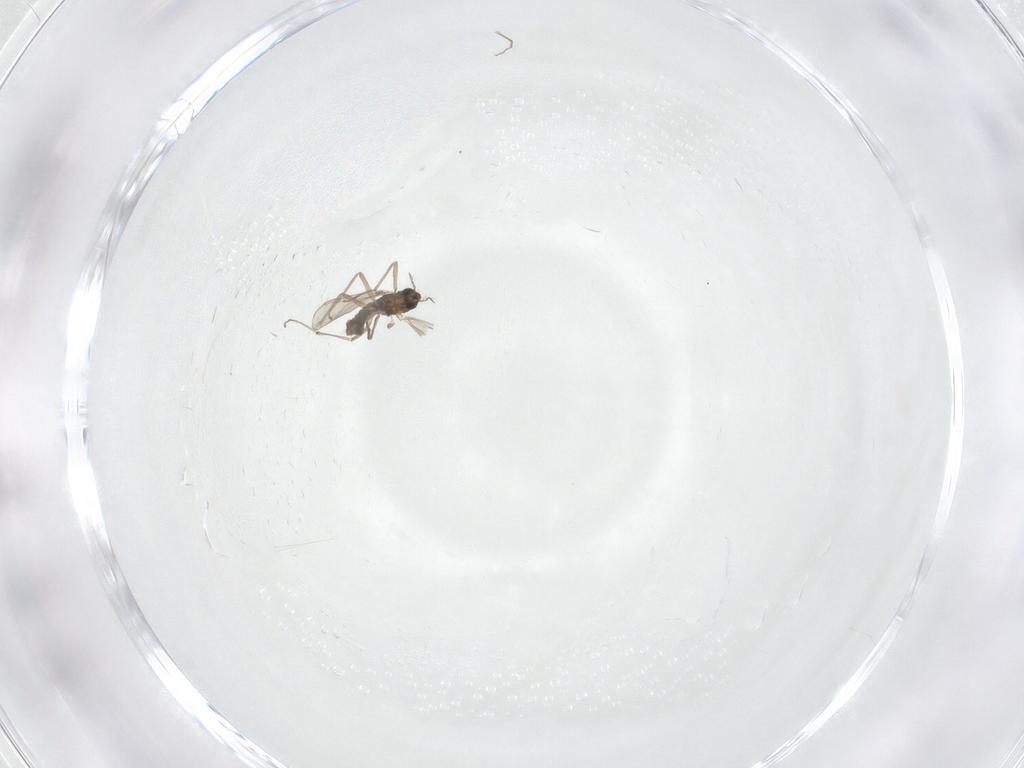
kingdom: Animalia
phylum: Arthropoda
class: Insecta
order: Diptera
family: Chironomidae
